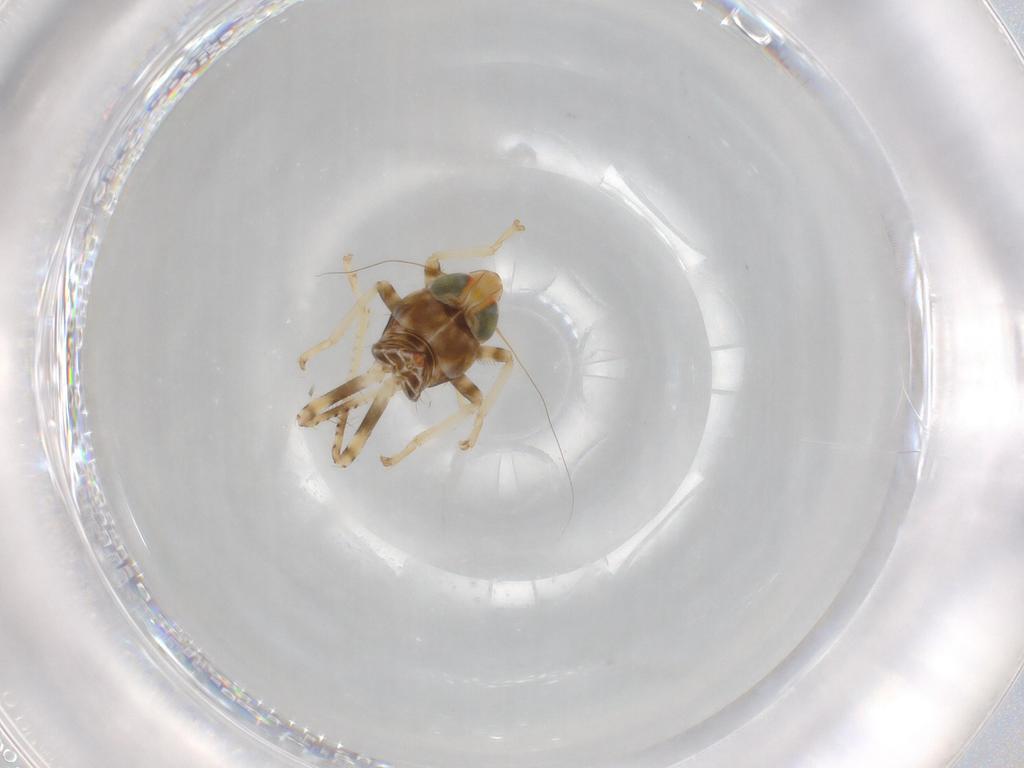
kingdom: Animalia
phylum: Arthropoda
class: Insecta
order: Hemiptera
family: Cicadellidae
